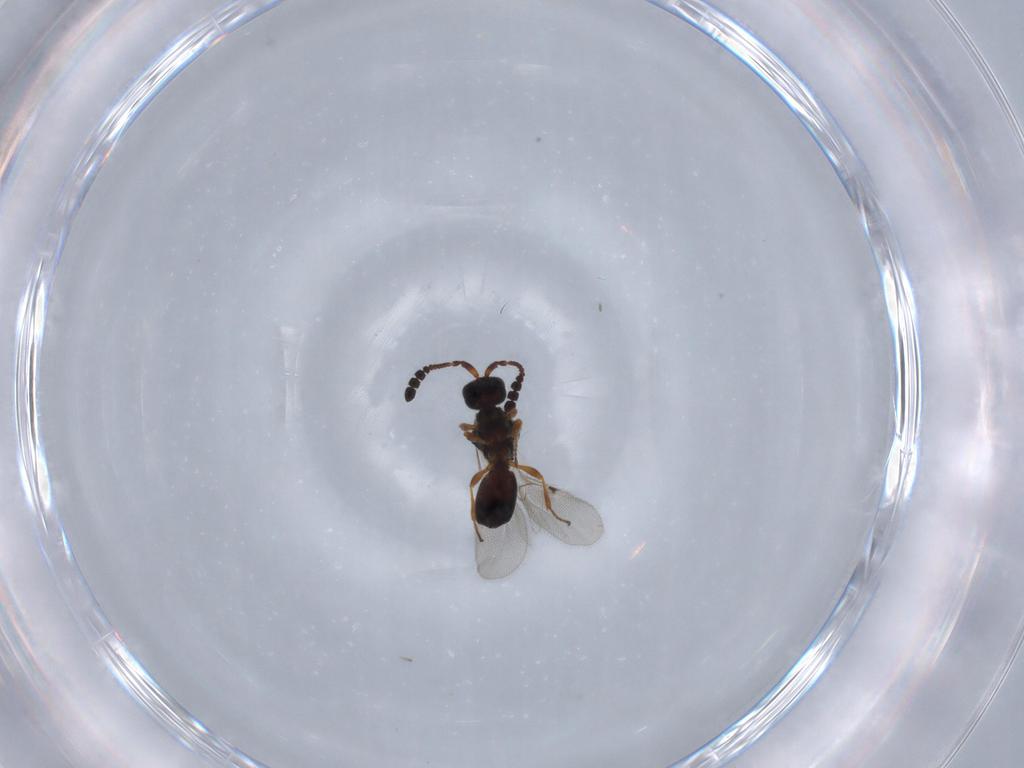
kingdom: Animalia
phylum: Arthropoda
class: Insecta
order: Hymenoptera
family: Diapriidae
